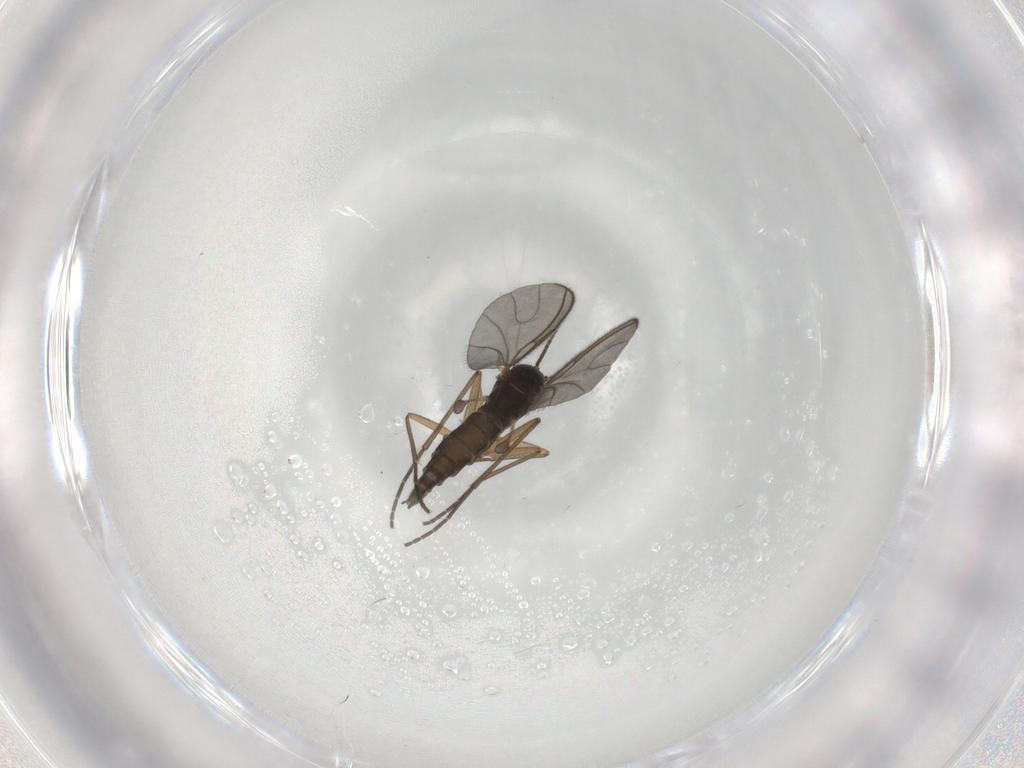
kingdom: Animalia
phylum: Arthropoda
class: Insecta
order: Diptera
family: Sciaridae
